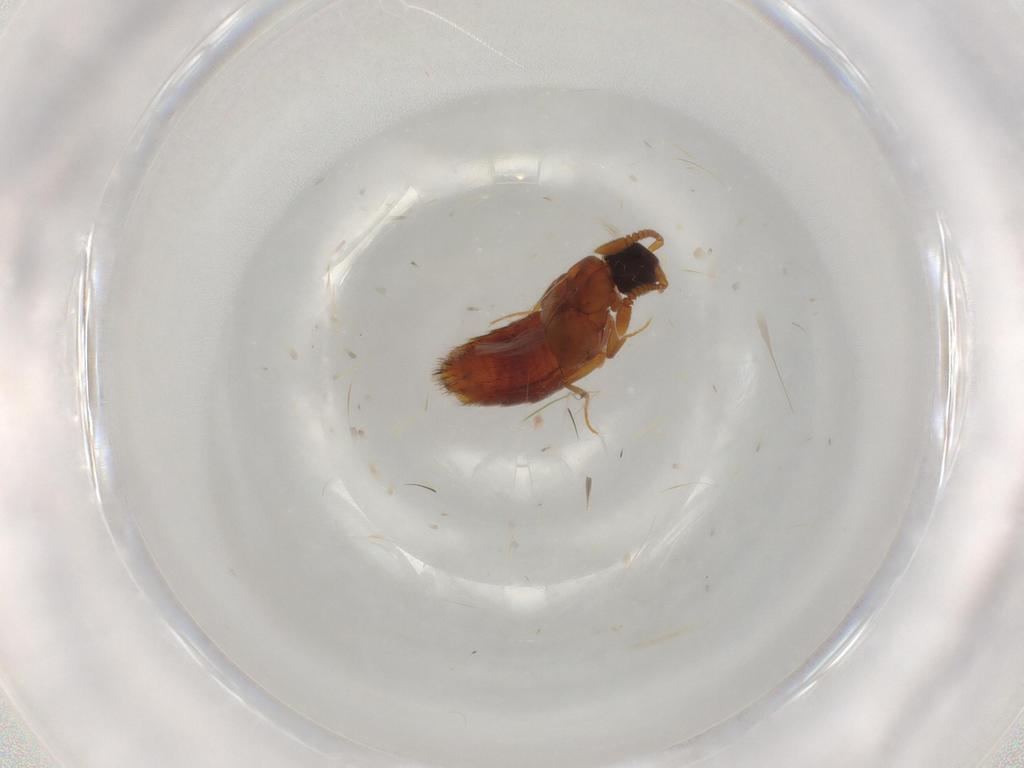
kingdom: Animalia
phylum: Arthropoda
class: Insecta
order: Coleoptera
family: Staphylinidae
